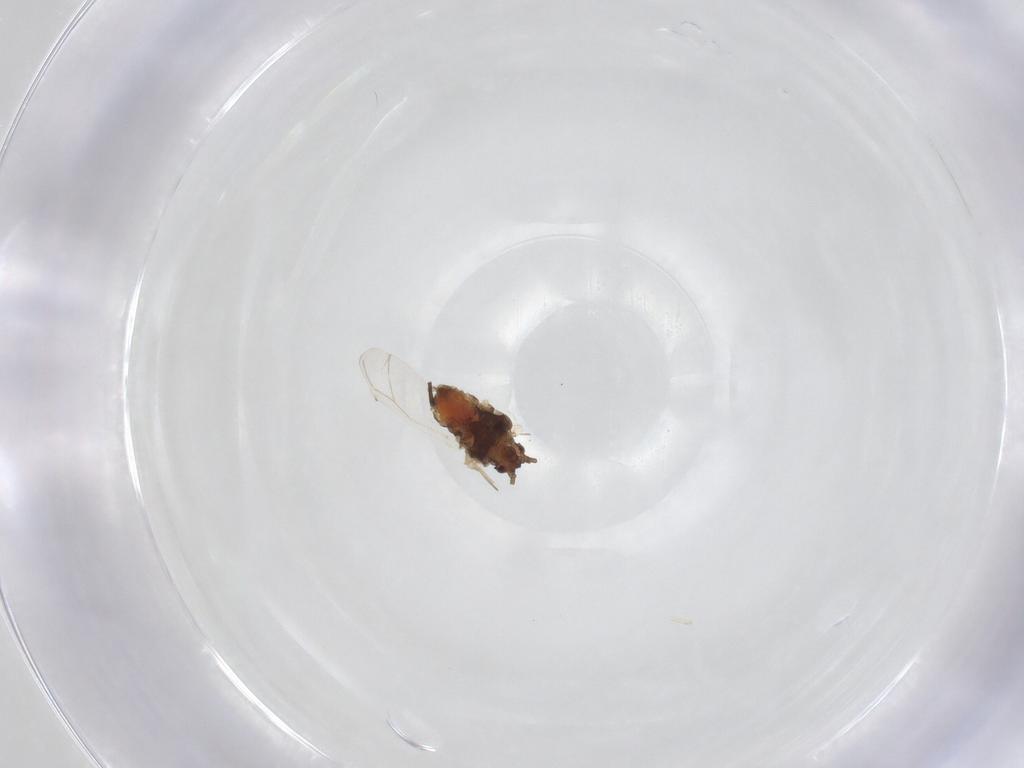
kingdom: Animalia
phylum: Arthropoda
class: Insecta
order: Hemiptera
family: Aphididae
